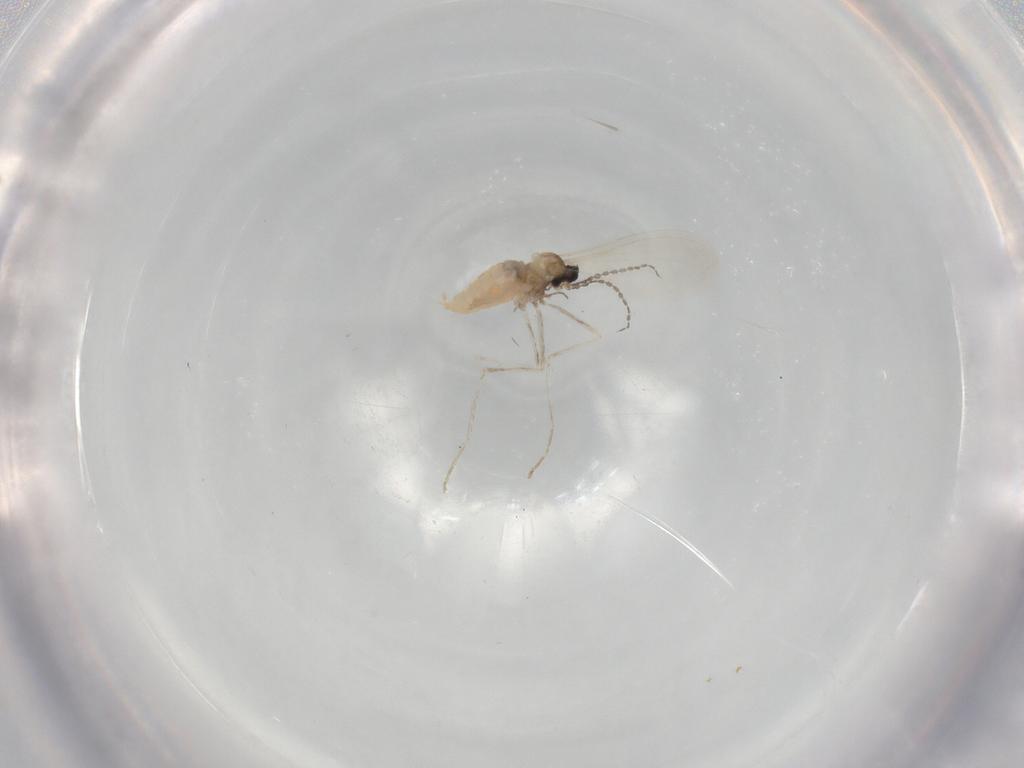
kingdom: Animalia
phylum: Arthropoda
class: Insecta
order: Diptera
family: Cecidomyiidae
